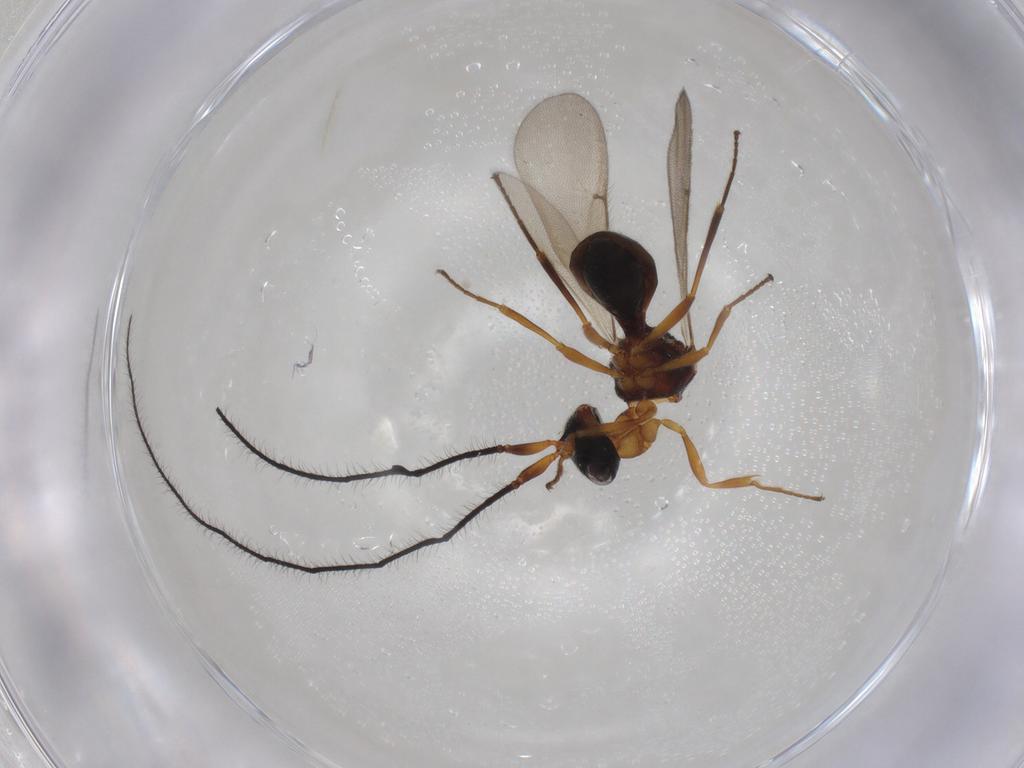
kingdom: Animalia
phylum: Arthropoda
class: Insecta
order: Hymenoptera
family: Scelionidae
